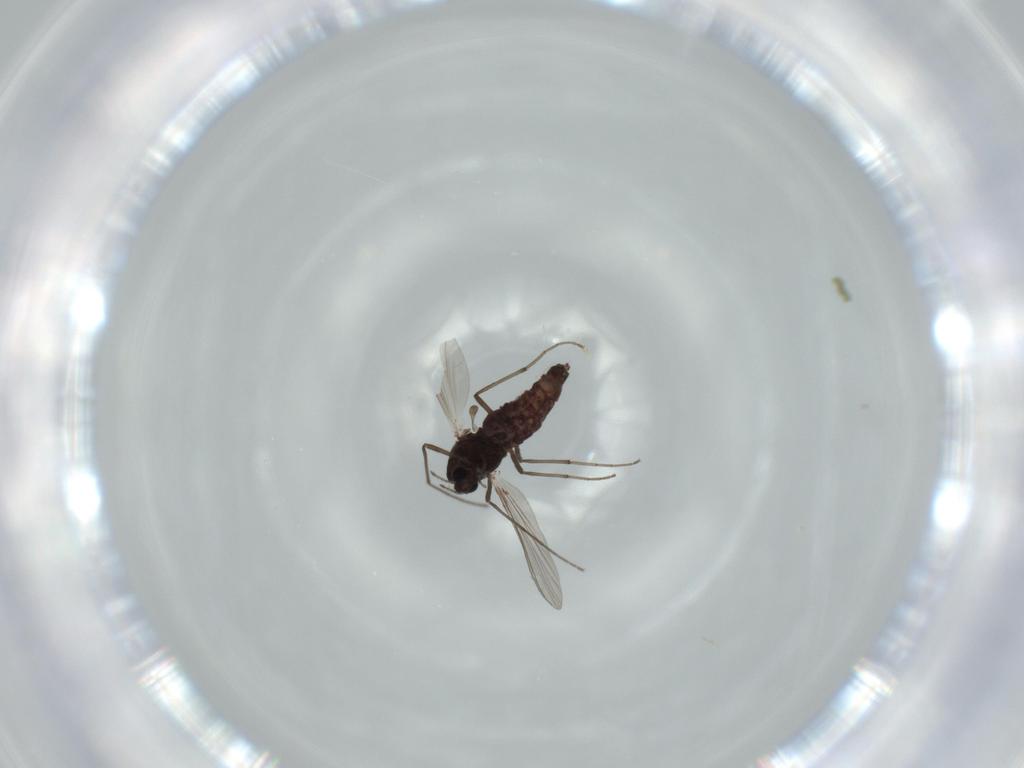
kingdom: Animalia
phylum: Arthropoda
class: Insecta
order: Diptera
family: Chironomidae
